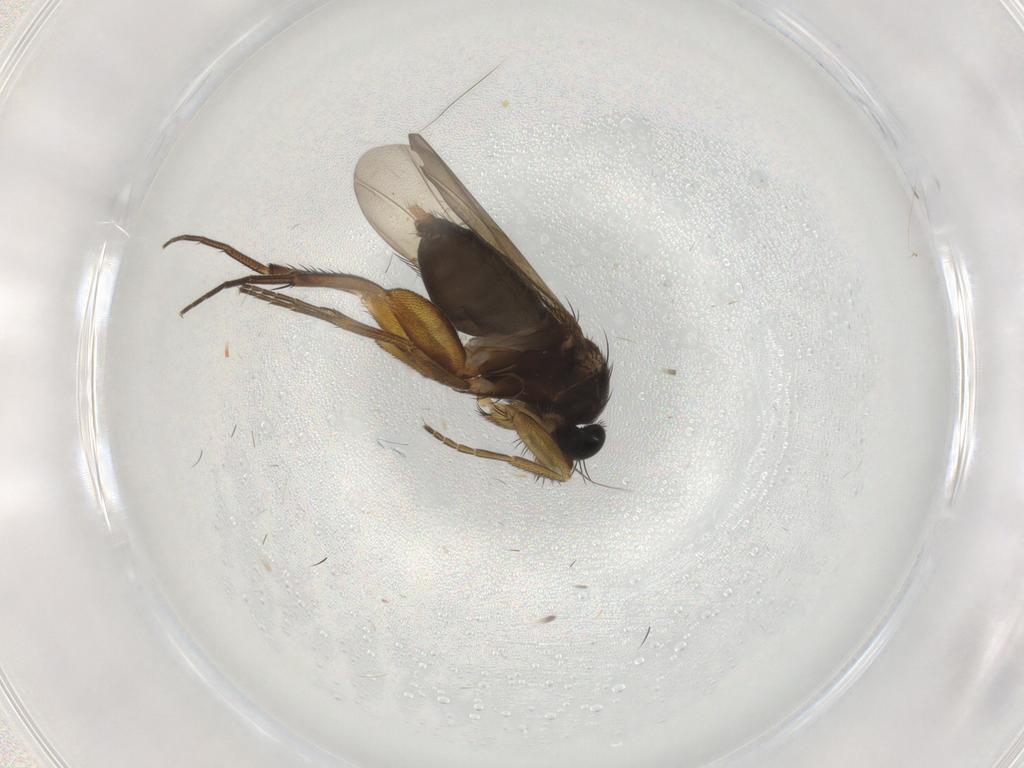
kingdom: Animalia
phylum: Arthropoda
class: Insecta
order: Diptera
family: Phoridae
